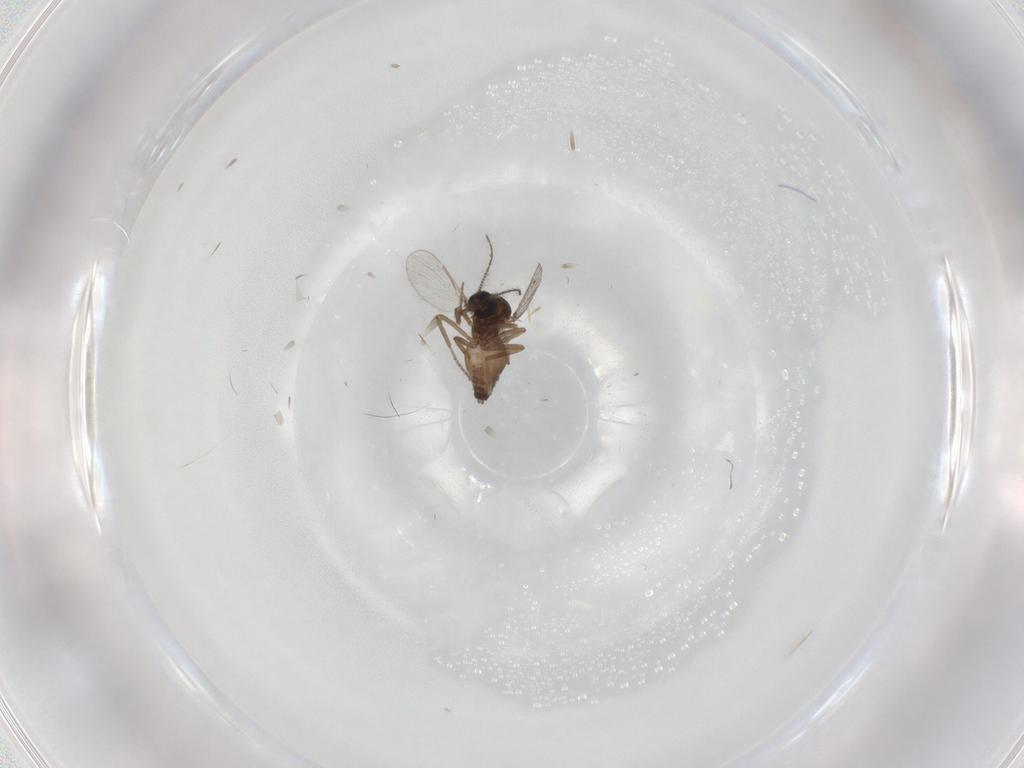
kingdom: Animalia
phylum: Arthropoda
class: Insecta
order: Diptera
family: Ceratopogonidae
